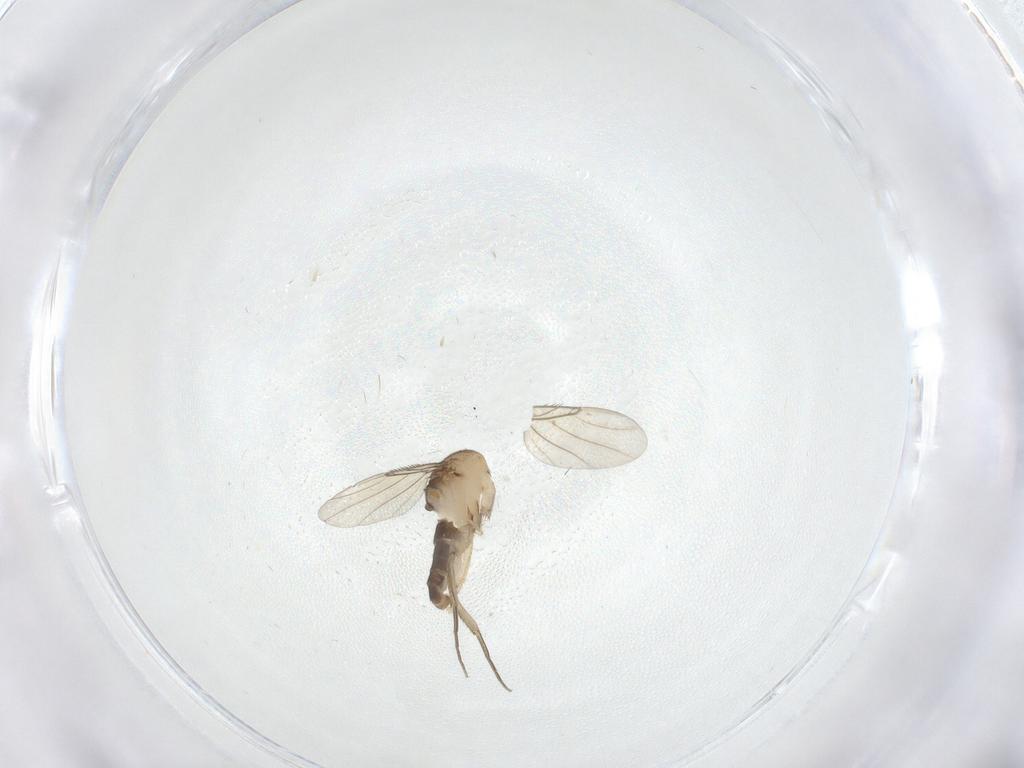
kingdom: Animalia
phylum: Arthropoda
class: Insecta
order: Diptera
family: Phoridae
